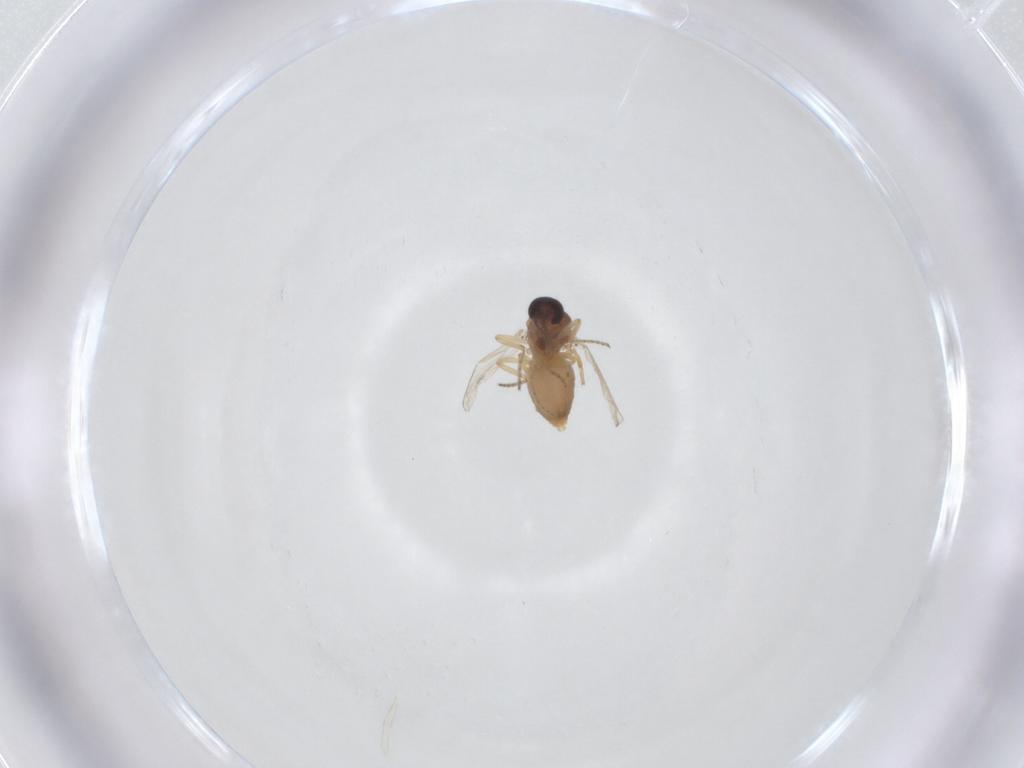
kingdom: Animalia
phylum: Arthropoda
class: Insecta
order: Diptera
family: Ceratopogonidae
